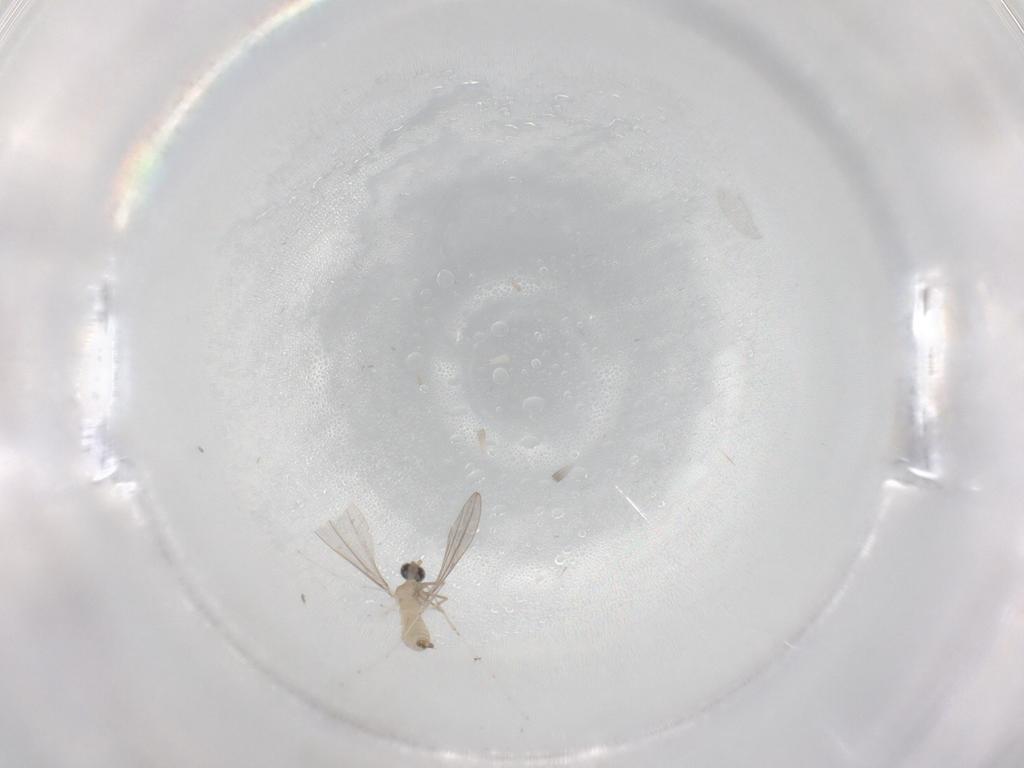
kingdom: Animalia
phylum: Arthropoda
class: Insecta
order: Diptera
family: Cecidomyiidae
